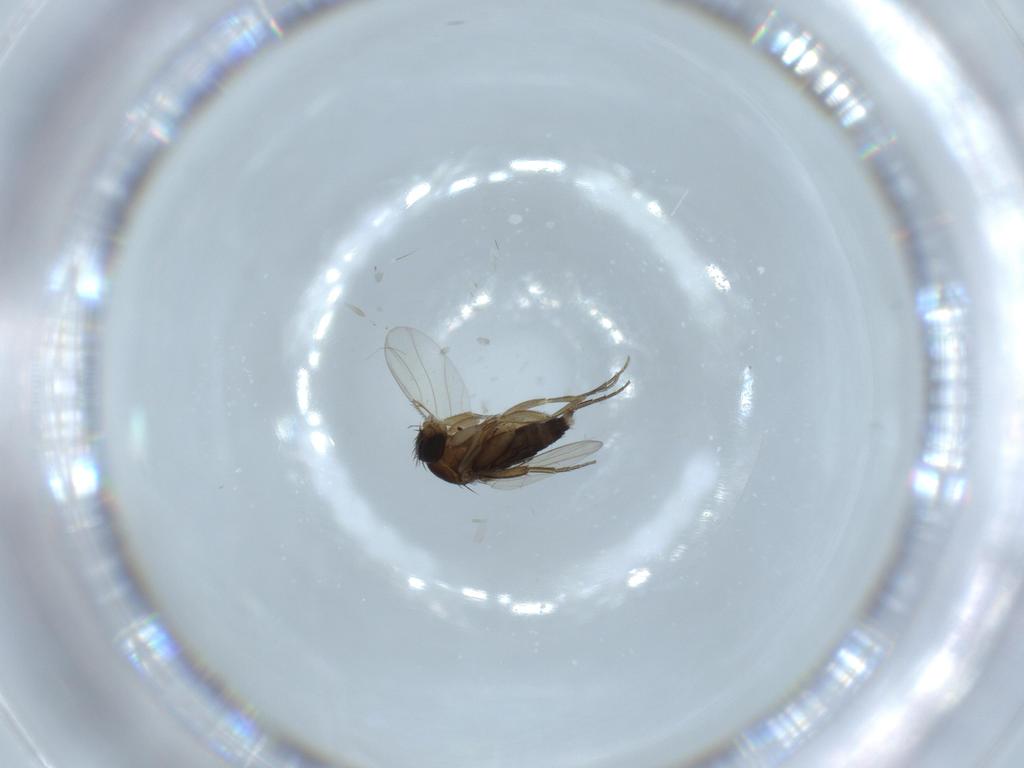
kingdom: Animalia
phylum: Arthropoda
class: Insecta
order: Diptera
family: Phoridae
